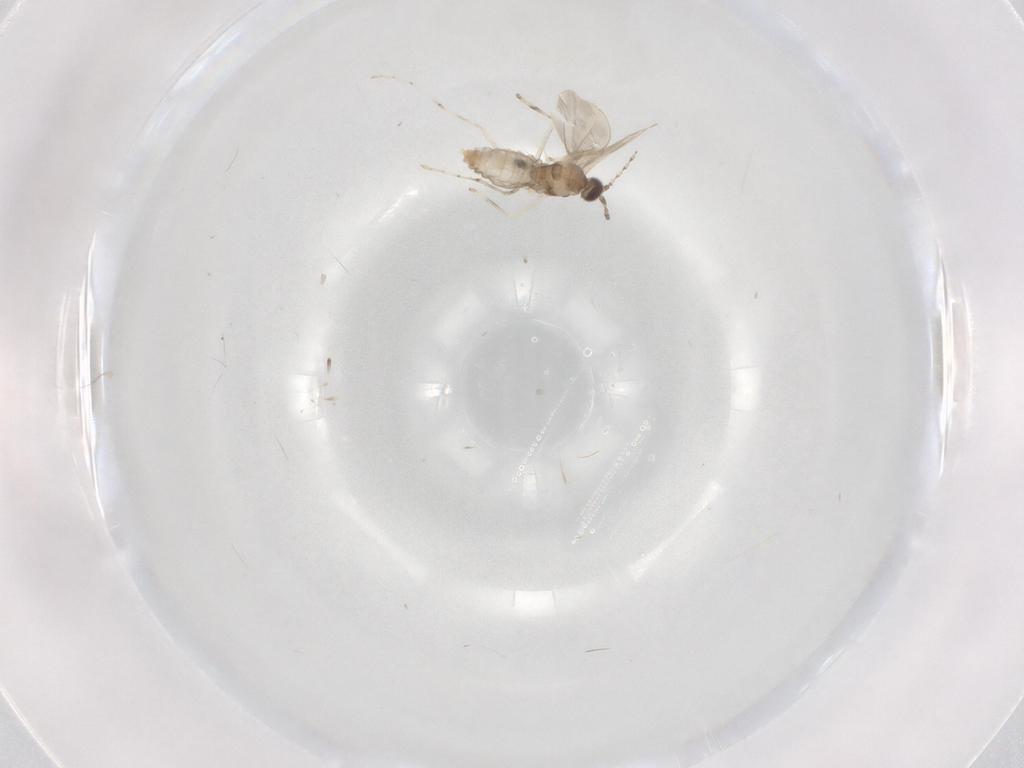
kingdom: Animalia
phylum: Arthropoda
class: Insecta
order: Diptera
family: Cecidomyiidae
